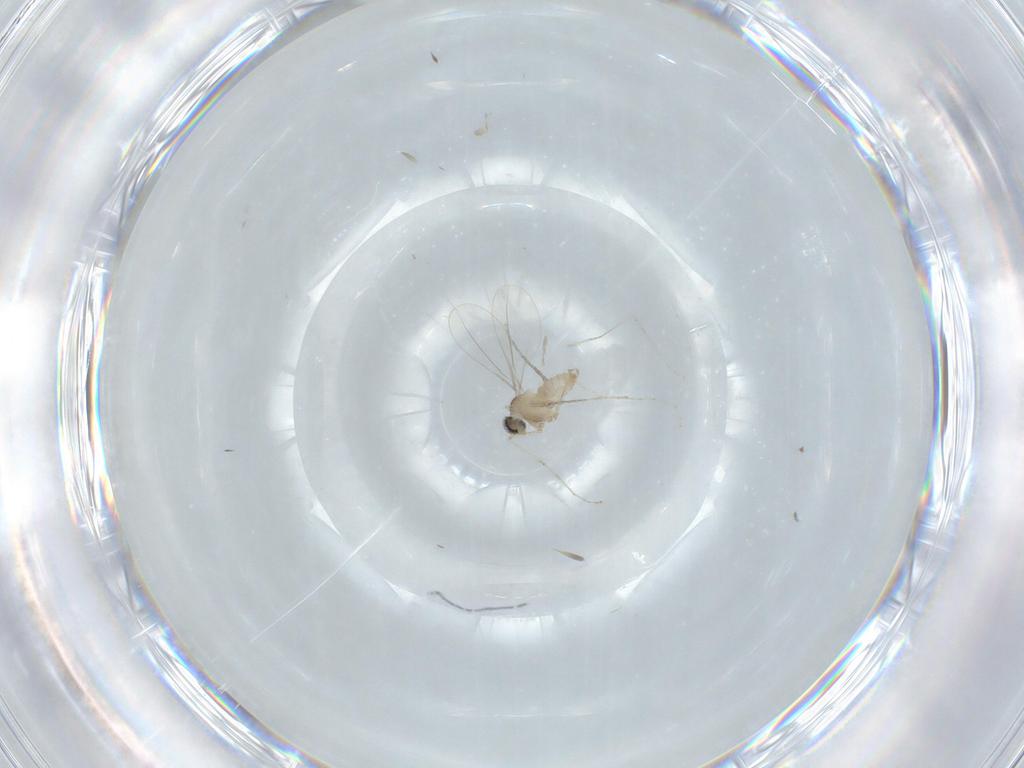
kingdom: Animalia
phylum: Arthropoda
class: Insecta
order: Diptera
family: Cecidomyiidae
